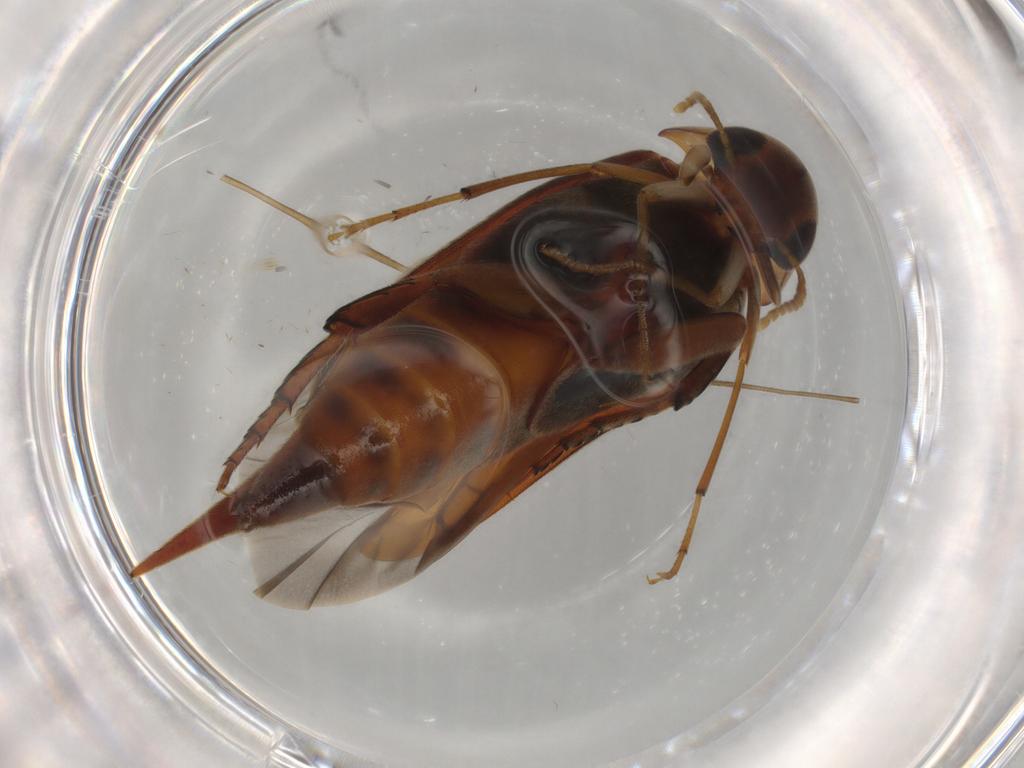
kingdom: Animalia
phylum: Arthropoda
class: Insecta
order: Coleoptera
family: Mordellidae
